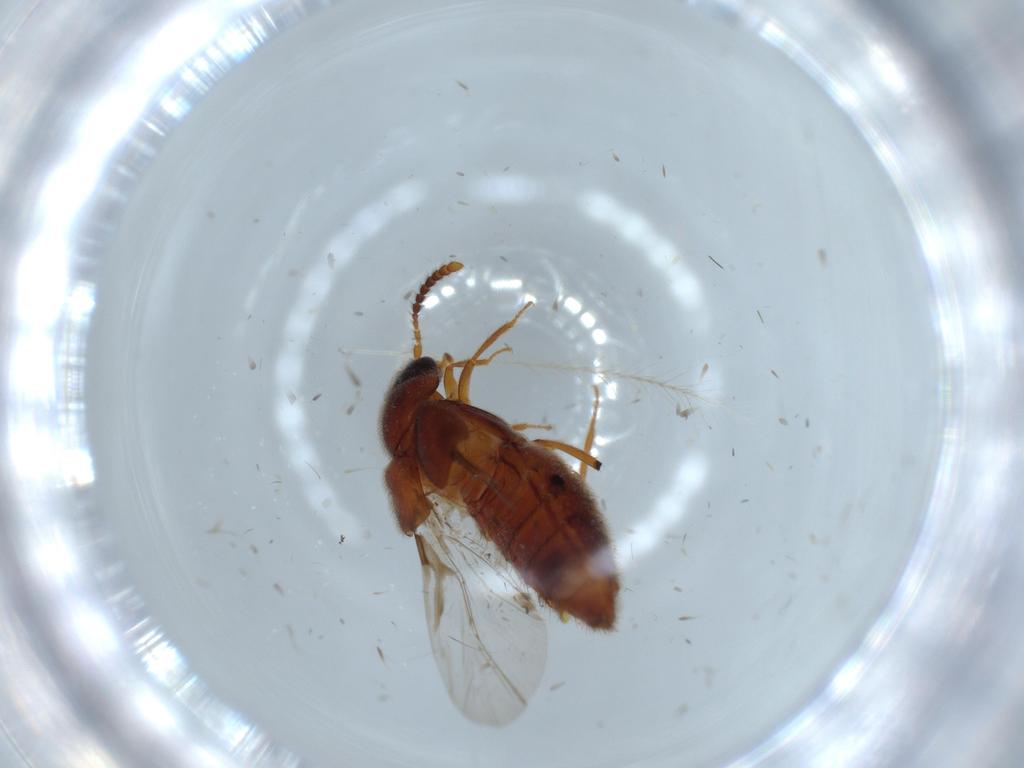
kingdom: Animalia
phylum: Arthropoda
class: Insecta
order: Coleoptera
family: Staphylinidae
